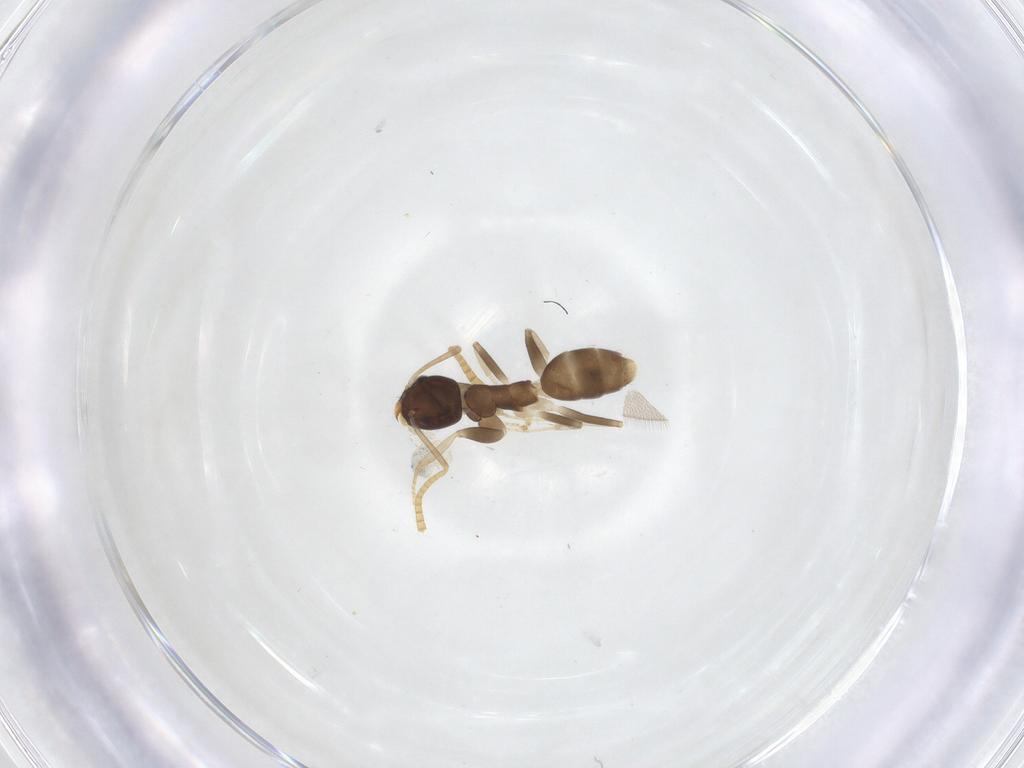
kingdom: Animalia
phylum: Arthropoda
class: Insecta
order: Hymenoptera
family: Formicidae
